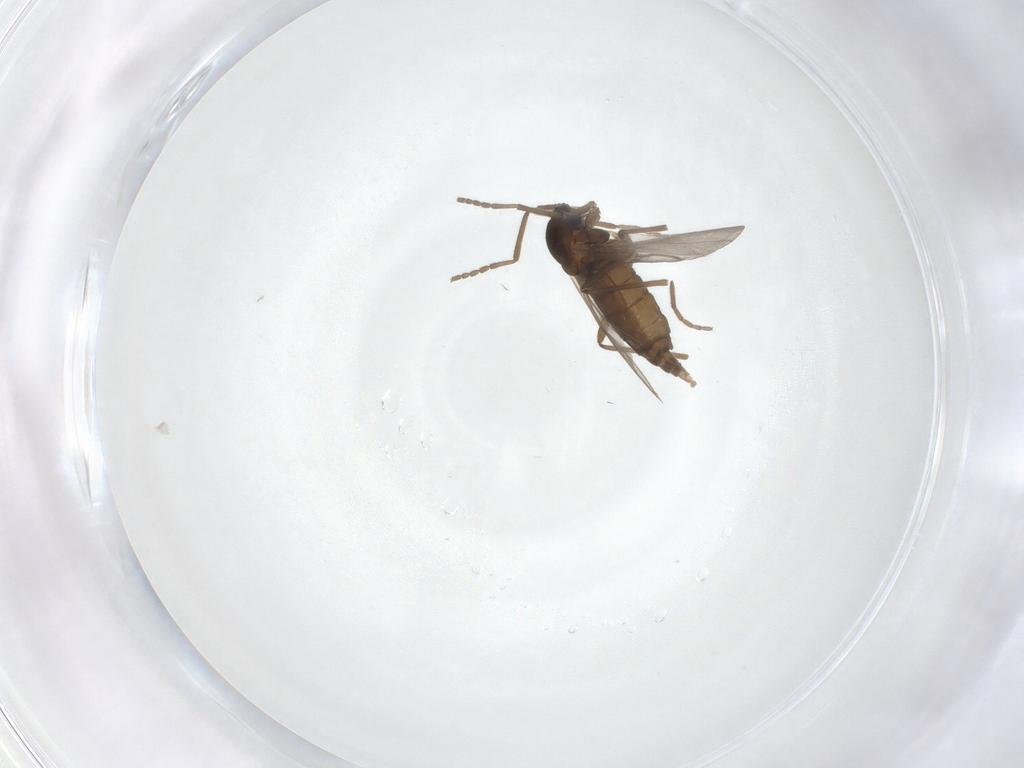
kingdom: Animalia
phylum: Arthropoda
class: Insecta
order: Diptera
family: Cecidomyiidae
